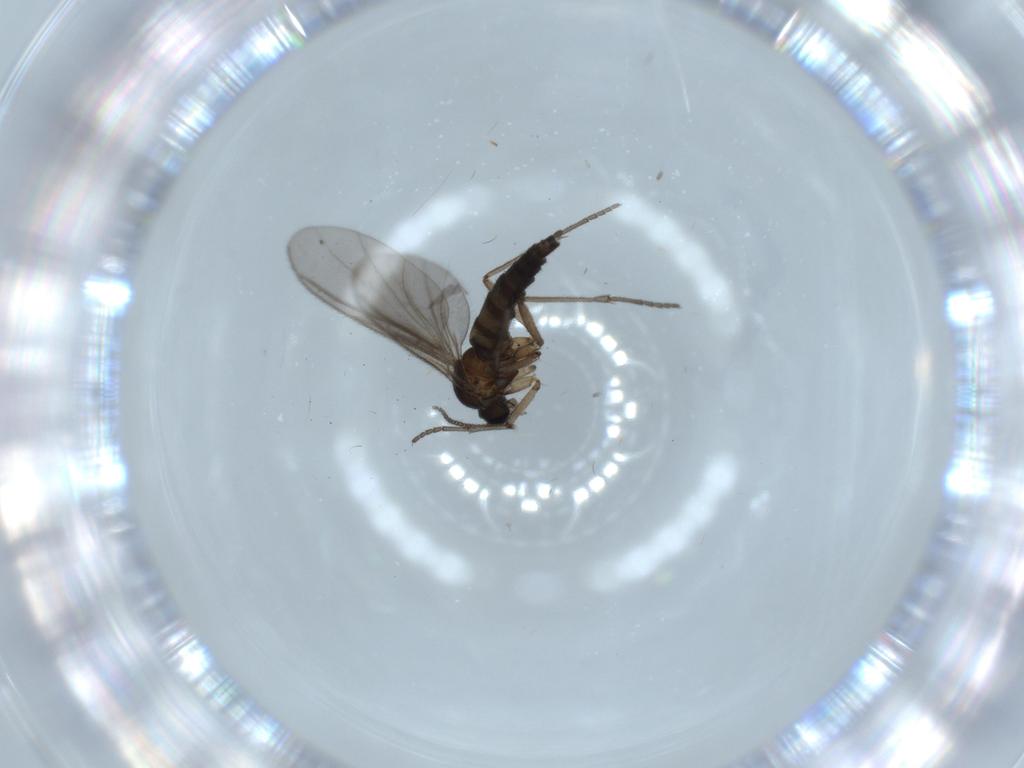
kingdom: Animalia
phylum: Arthropoda
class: Insecta
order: Diptera
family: Sciaridae
